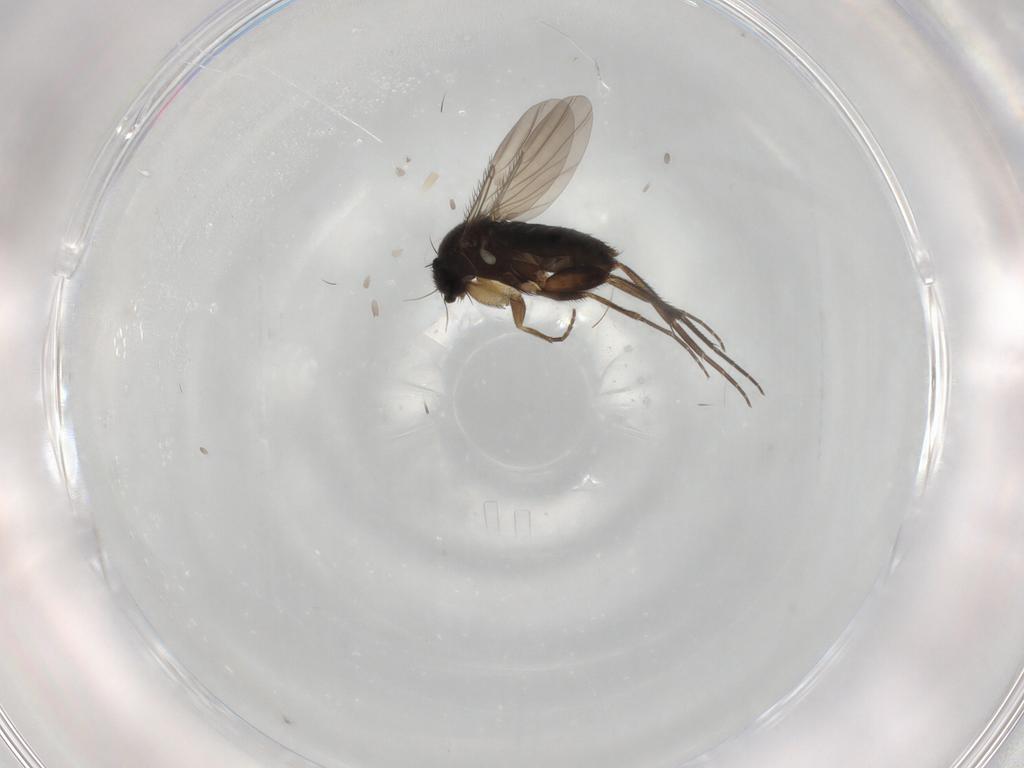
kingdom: Animalia
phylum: Arthropoda
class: Insecta
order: Diptera
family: Phoridae
